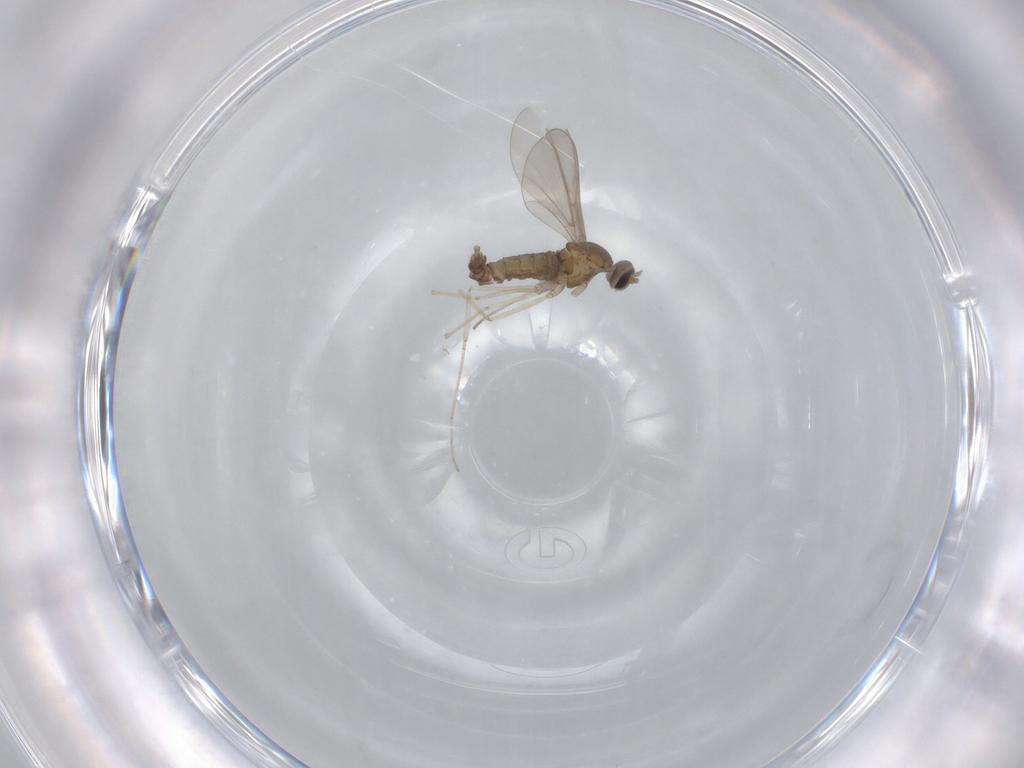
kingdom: Animalia
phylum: Arthropoda
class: Insecta
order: Diptera
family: Cecidomyiidae
